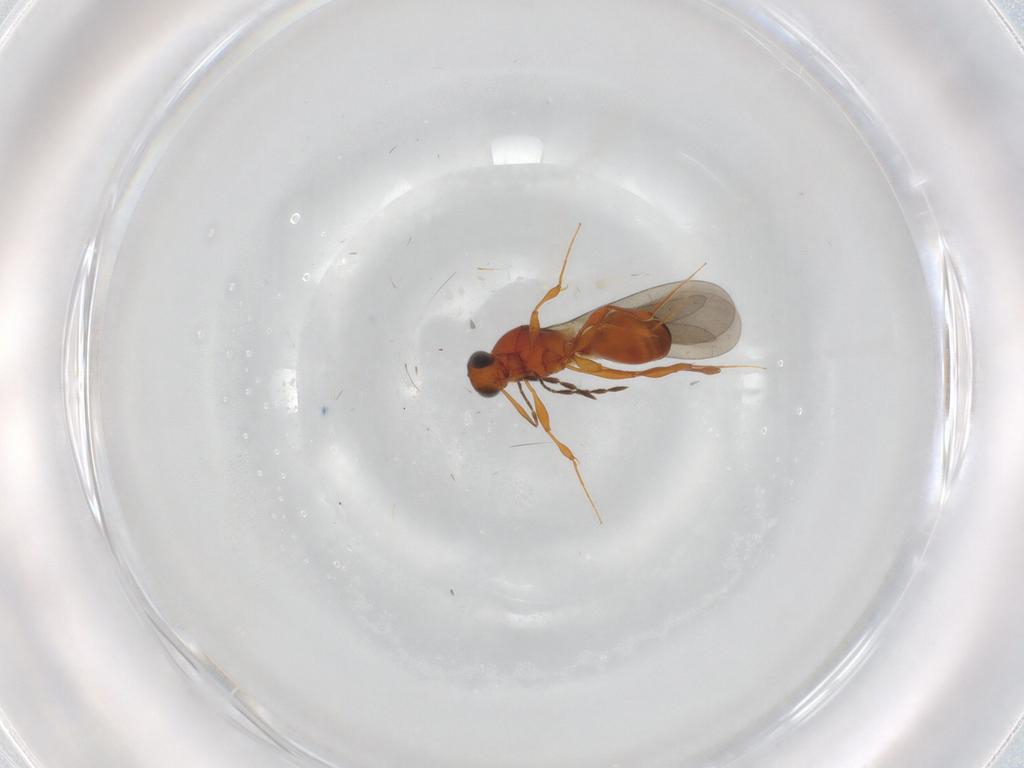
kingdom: Animalia
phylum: Arthropoda
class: Insecta
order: Hymenoptera
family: Platygastridae
